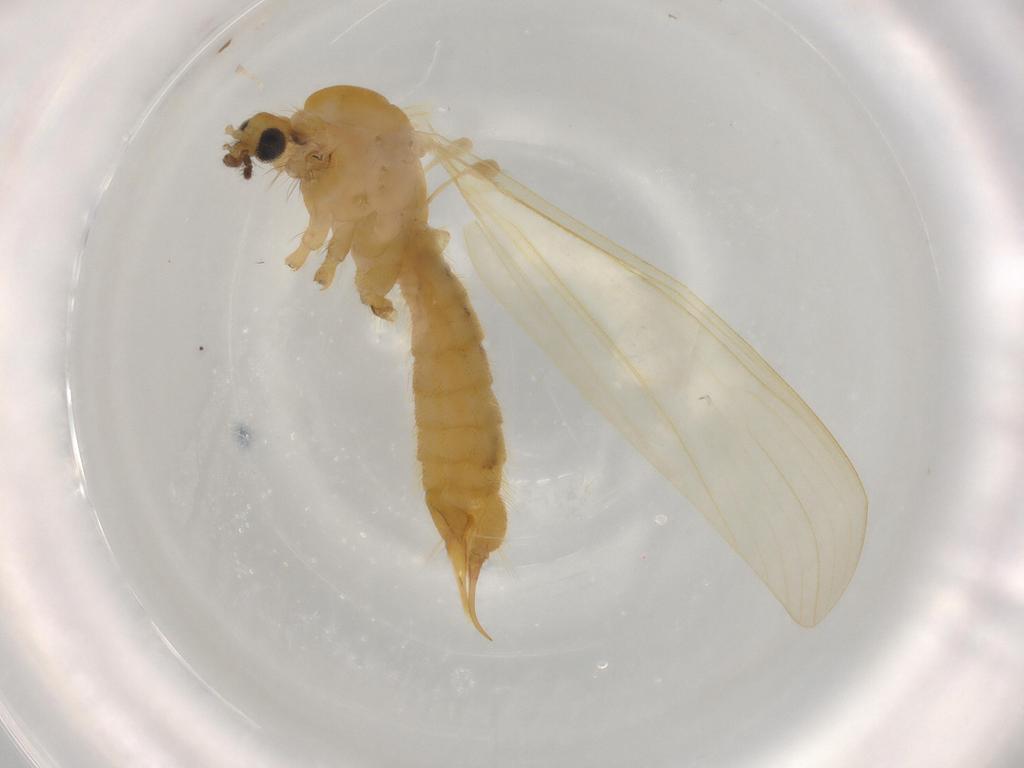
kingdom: Animalia
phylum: Arthropoda
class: Insecta
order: Diptera
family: Limoniidae
